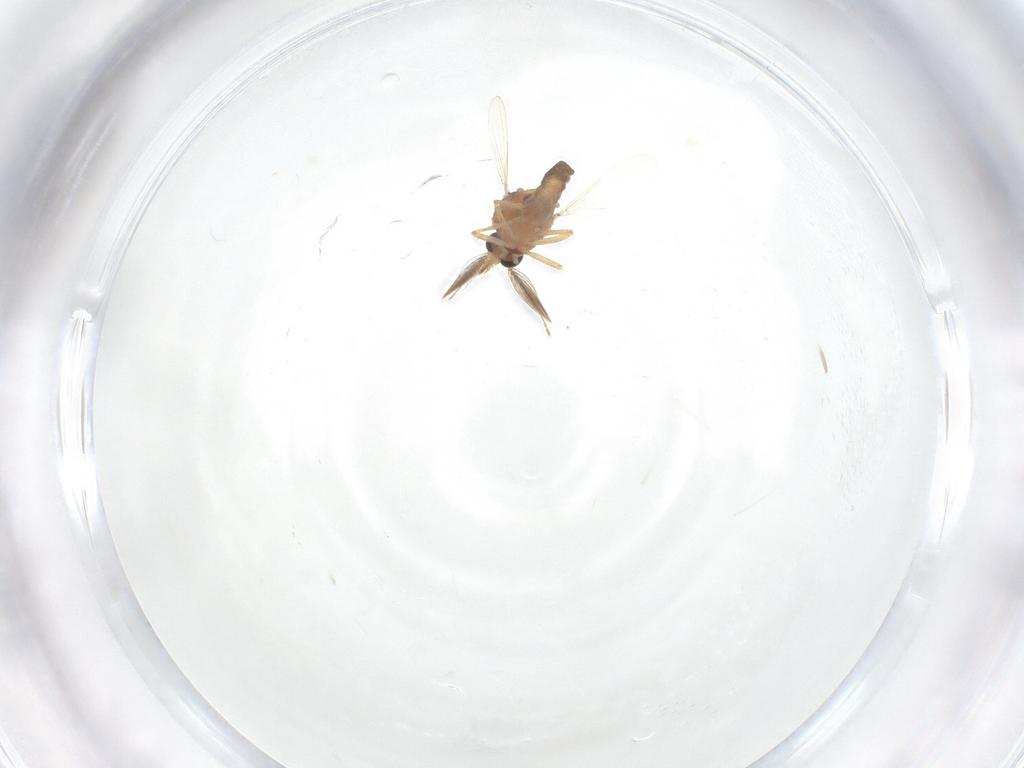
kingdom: Animalia
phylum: Arthropoda
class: Insecta
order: Diptera
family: Ceratopogonidae
